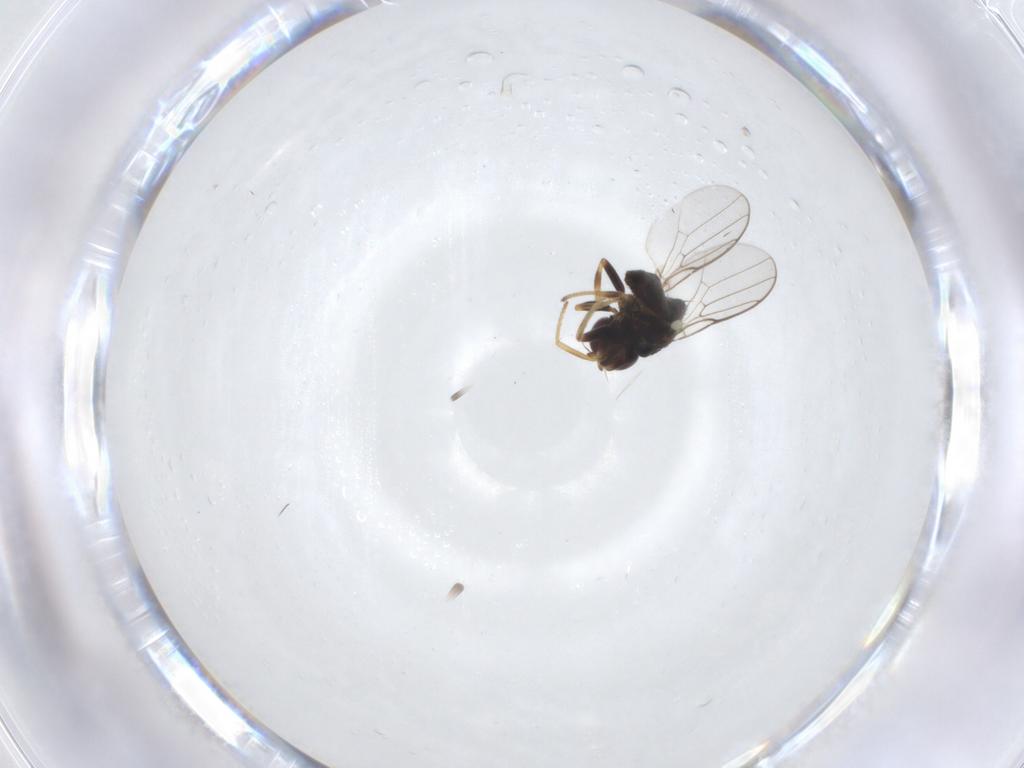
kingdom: Animalia
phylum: Arthropoda
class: Insecta
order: Diptera
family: Chloropidae
